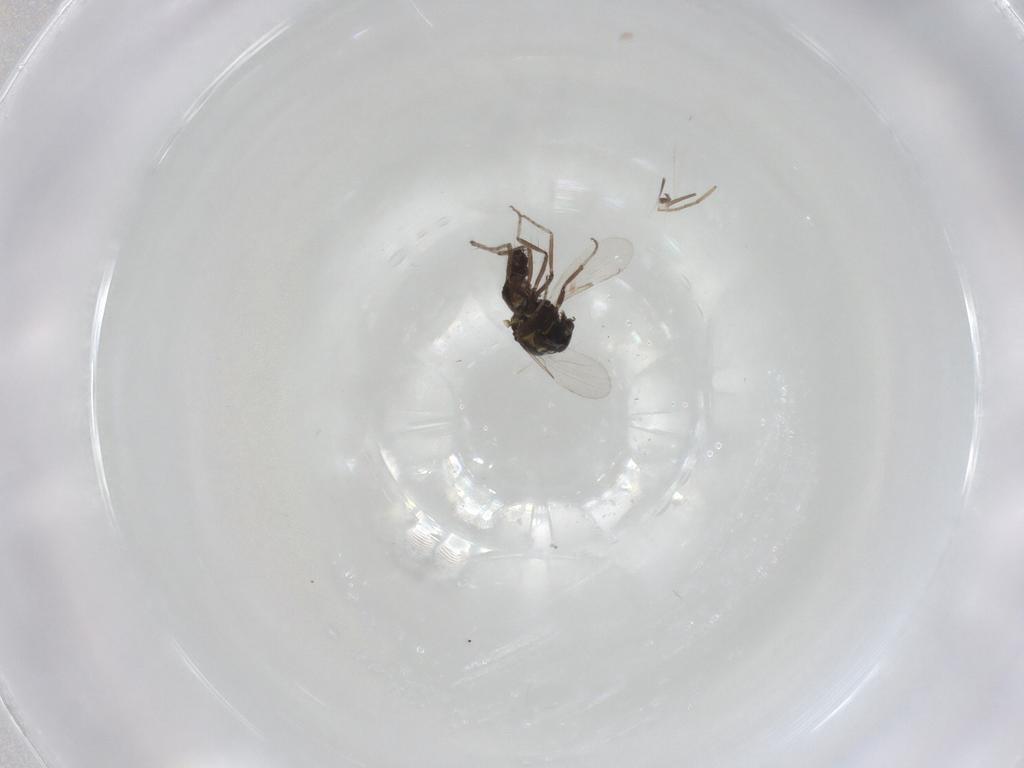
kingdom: Animalia
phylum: Arthropoda
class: Insecta
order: Diptera
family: Ceratopogonidae
